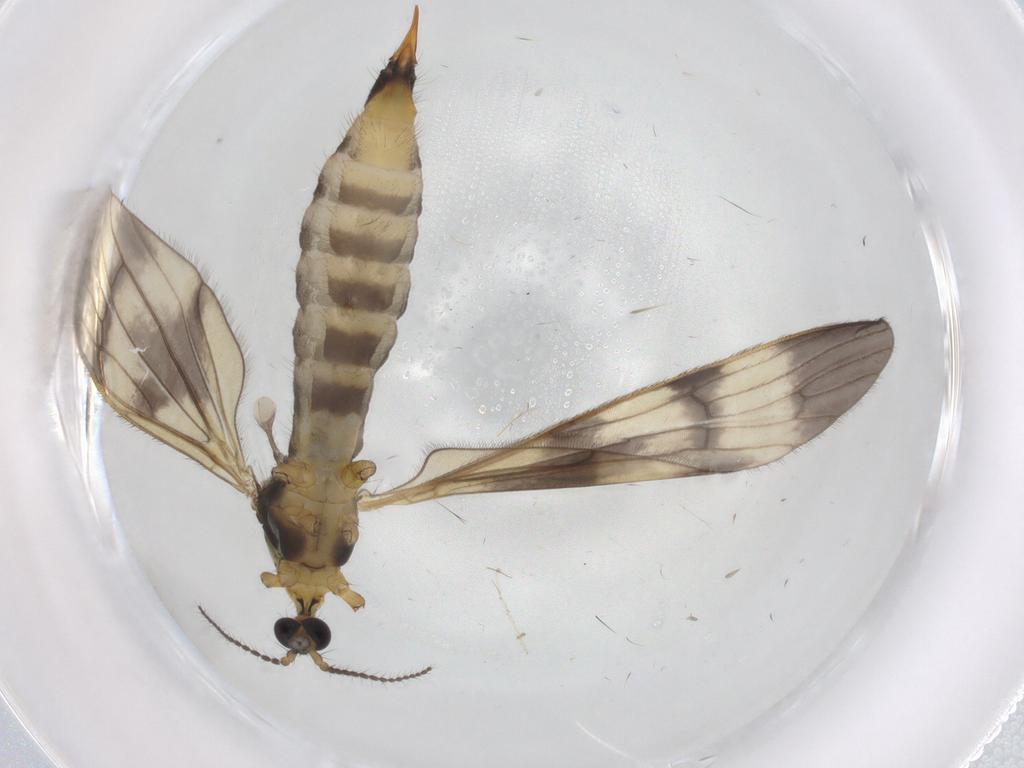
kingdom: Animalia
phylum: Arthropoda
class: Insecta
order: Diptera
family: Limoniidae
